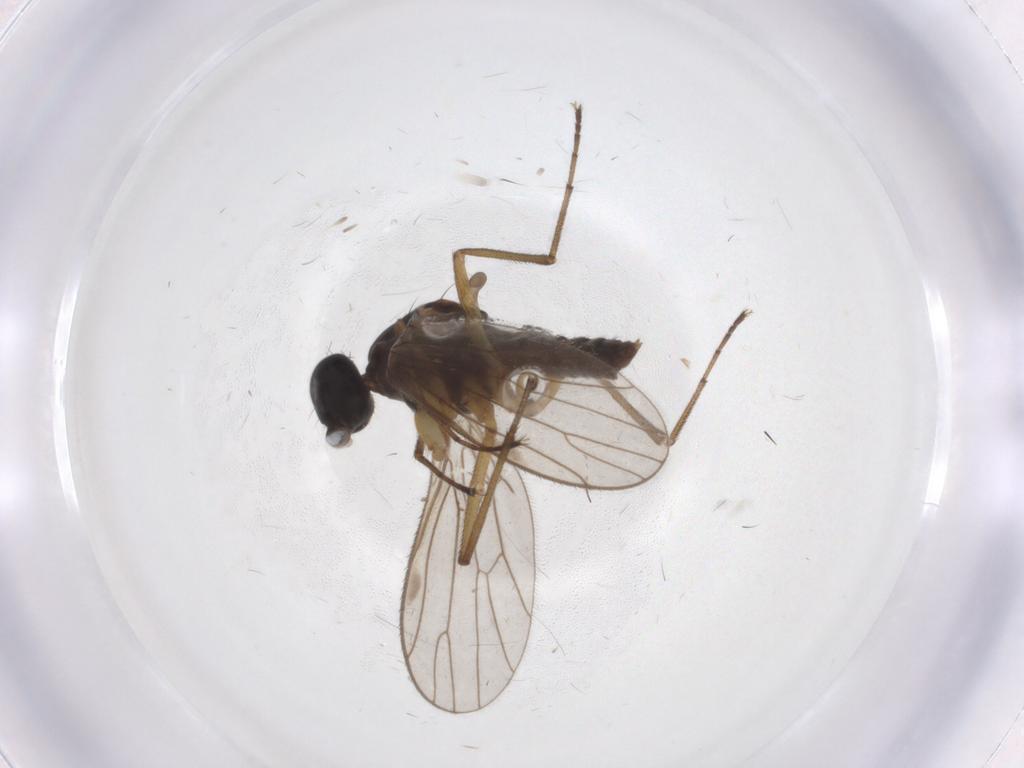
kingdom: Animalia
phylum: Arthropoda
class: Insecta
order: Diptera
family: Empididae
